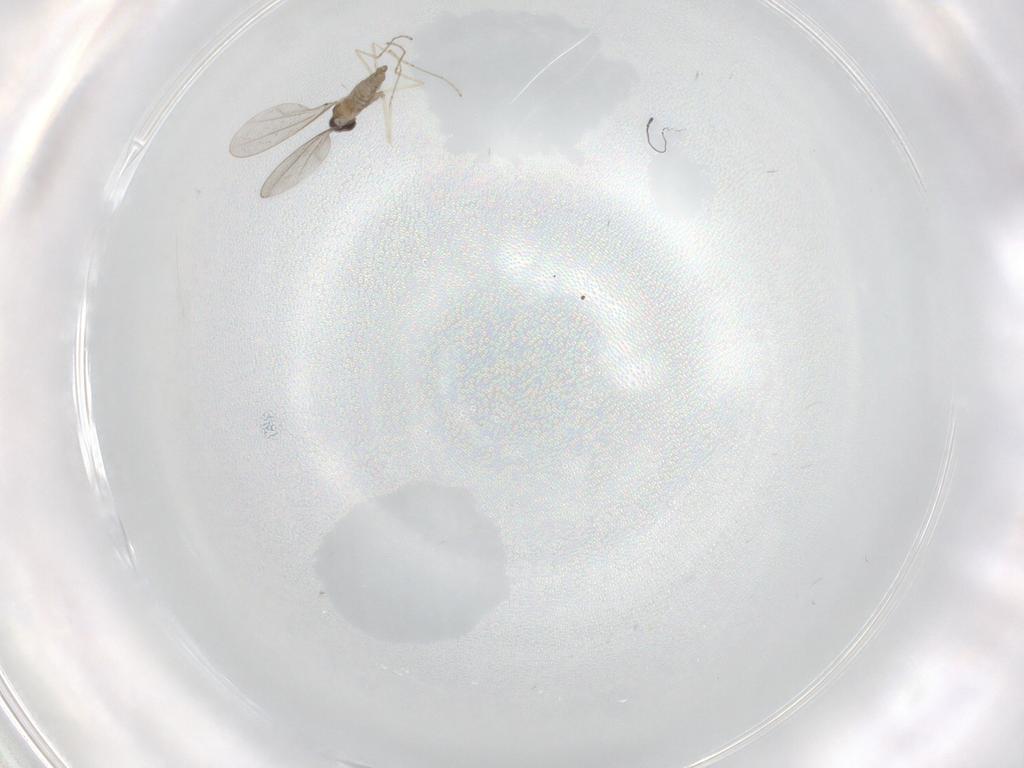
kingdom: Animalia
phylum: Arthropoda
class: Insecta
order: Diptera
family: Cecidomyiidae
